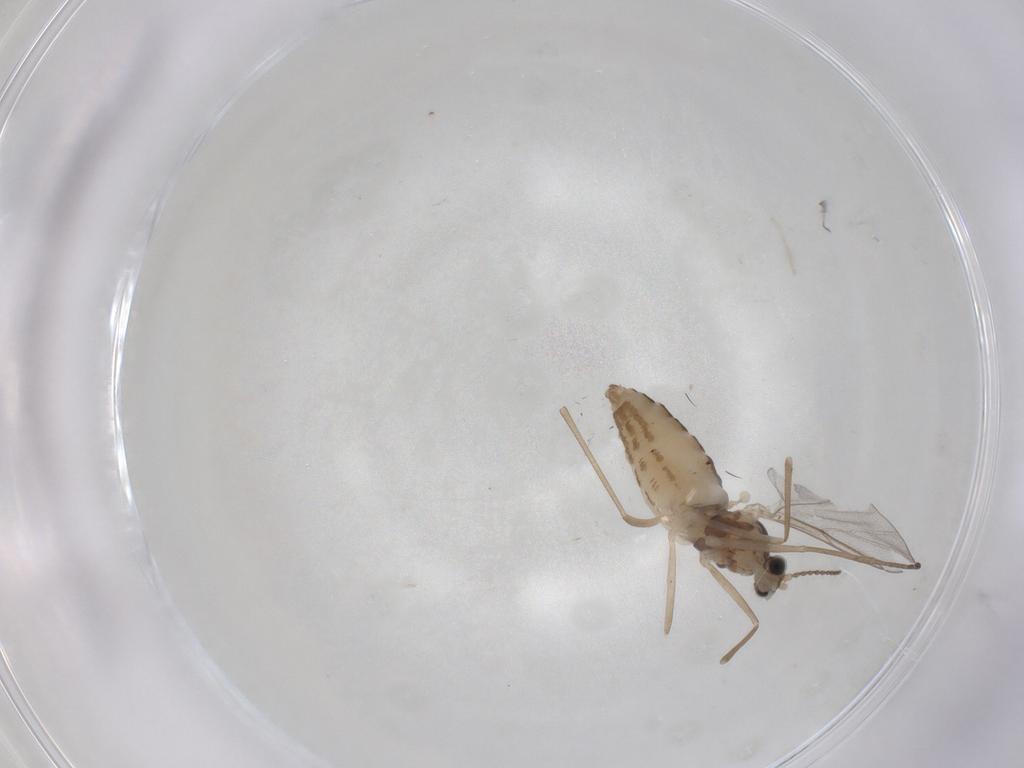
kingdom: Animalia
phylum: Arthropoda
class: Insecta
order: Diptera
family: Cecidomyiidae
